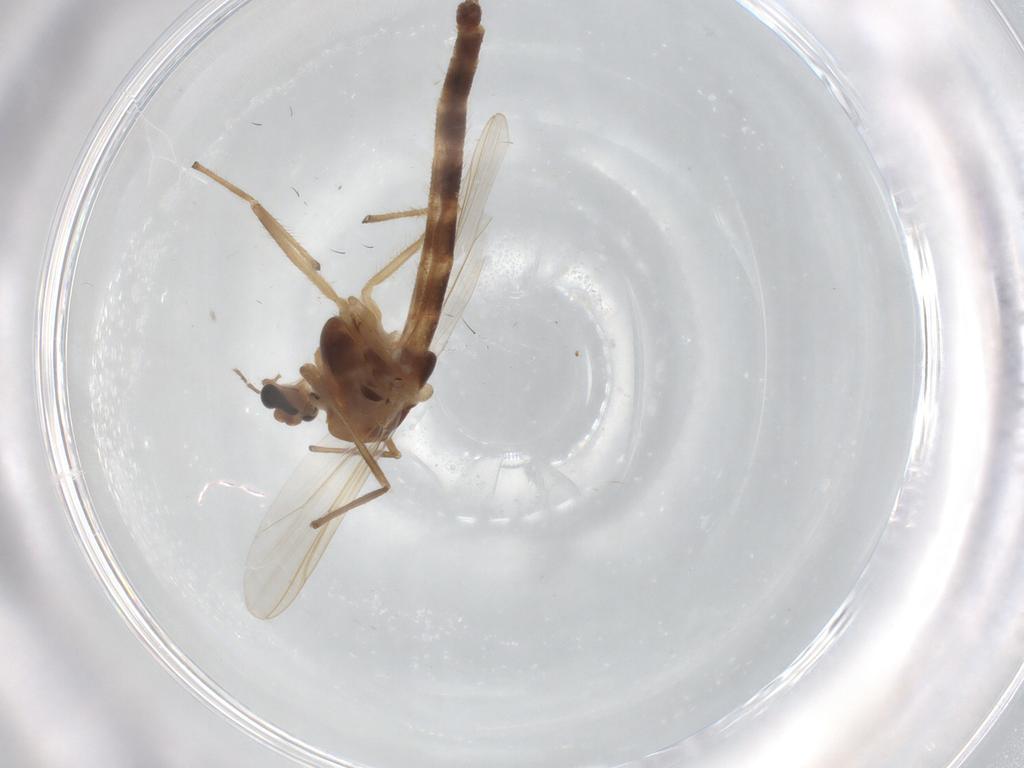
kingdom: Animalia
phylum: Arthropoda
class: Insecta
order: Diptera
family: Chironomidae
